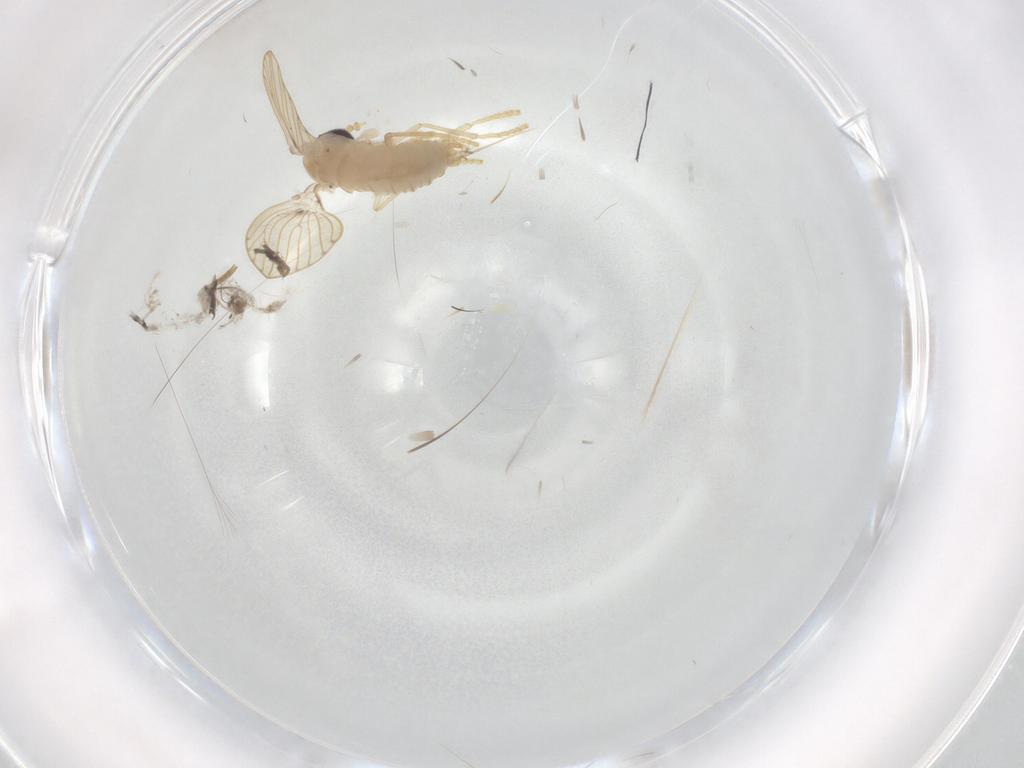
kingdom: Animalia
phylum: Arthropoda
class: Insecta
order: Diptera
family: Psychodidae
